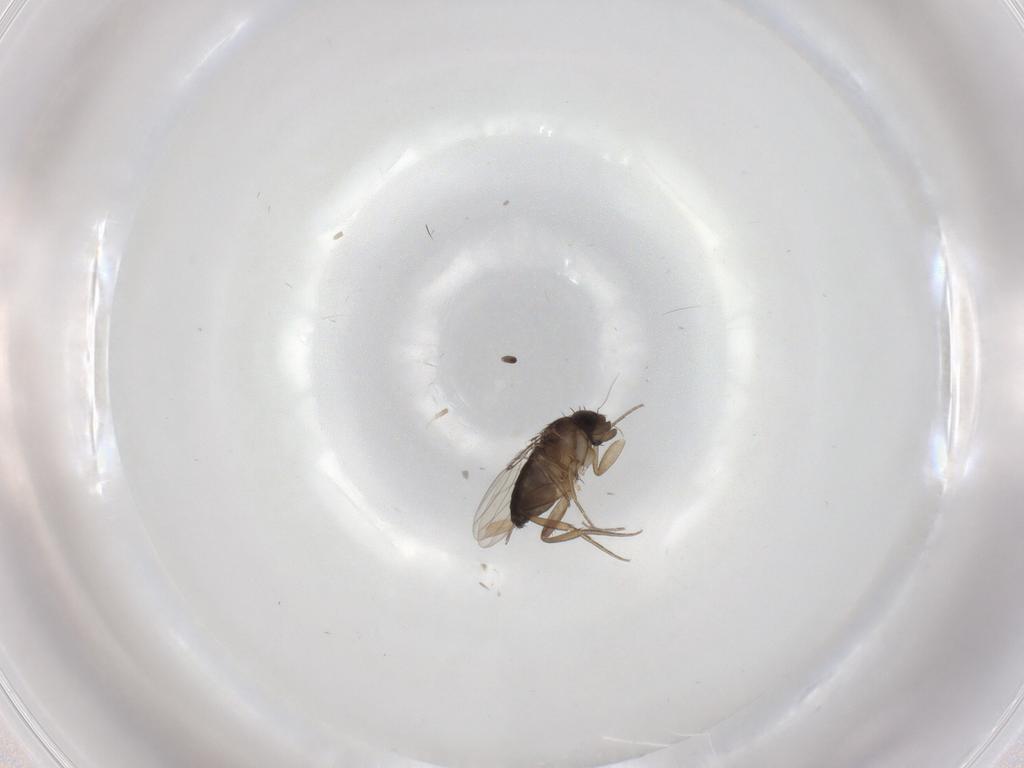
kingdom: Animalia
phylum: Arthropoda
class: Insecta
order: Diptera
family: Phoridae
